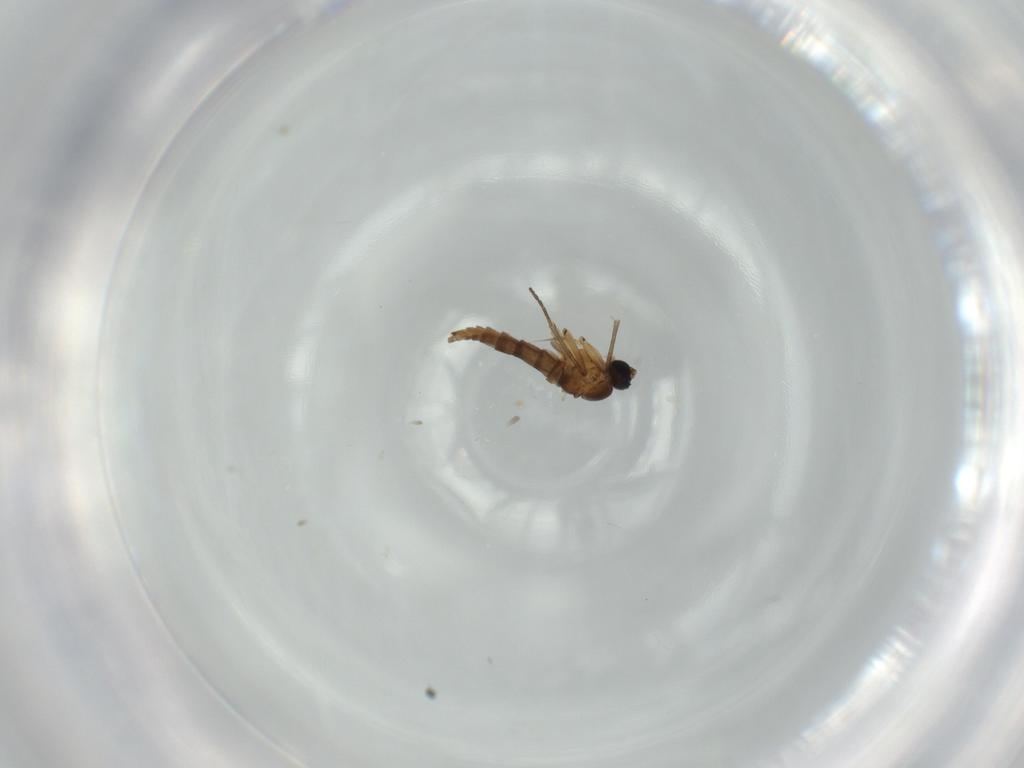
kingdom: Animalia
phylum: Arthropoda
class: Insecta
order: Diptera
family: Sciaridae
